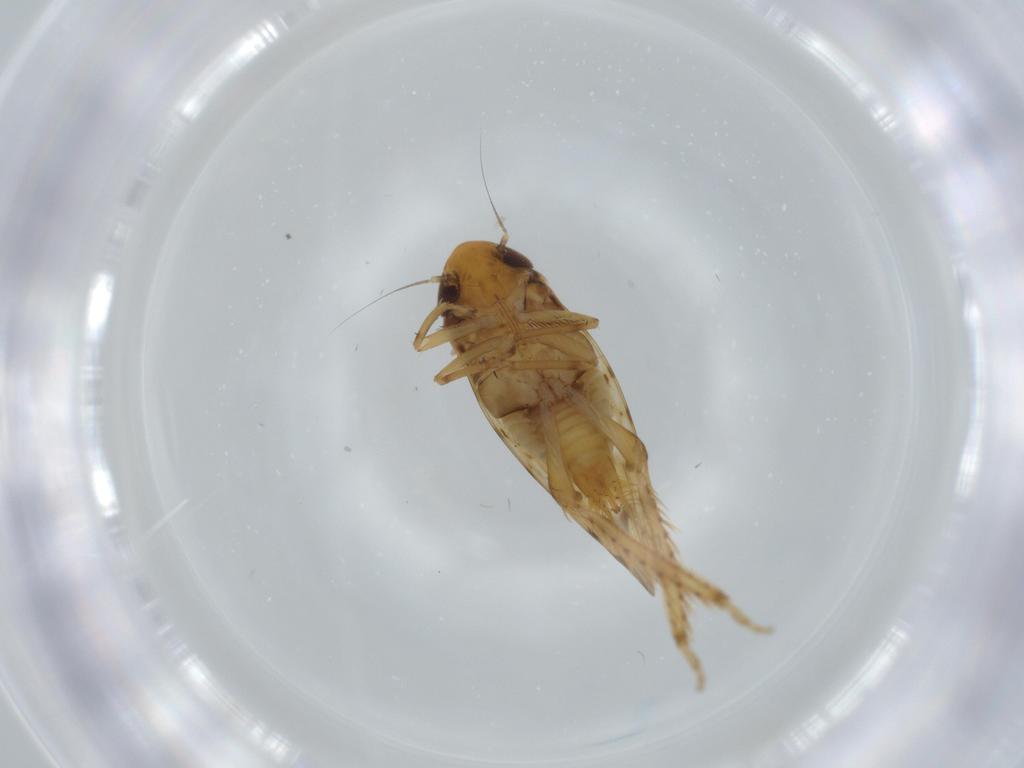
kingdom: Animalia
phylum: Arthropoda
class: Insecta
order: Hemiptera
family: Cicadellidae
